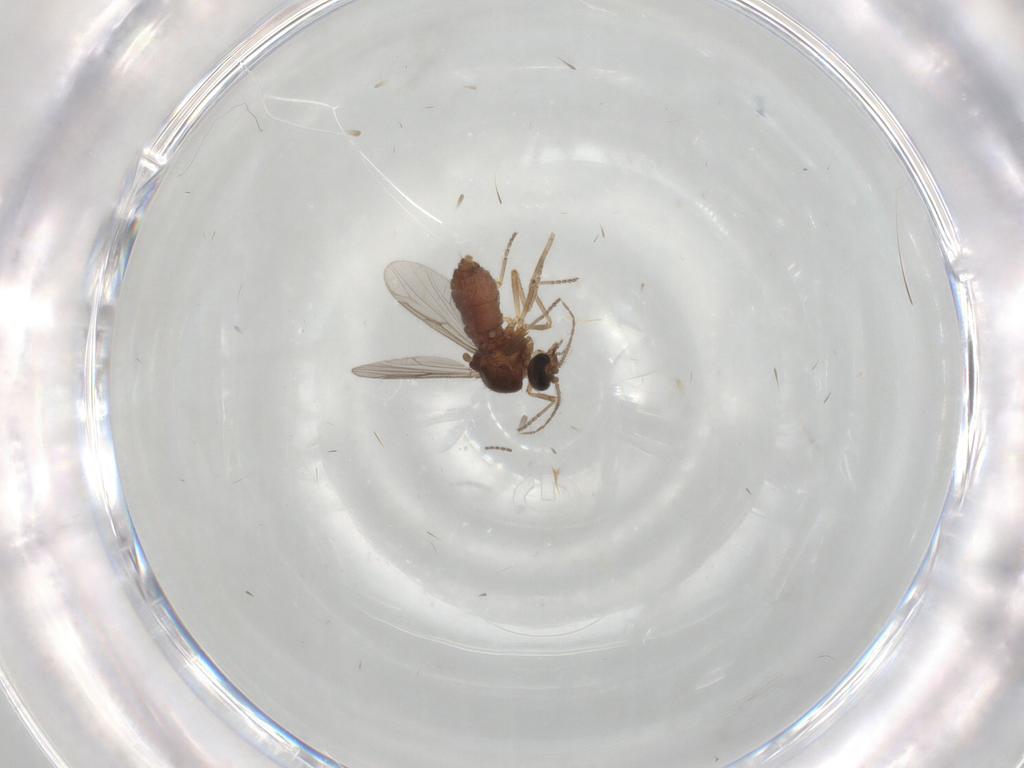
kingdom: Animalia
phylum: Arthropoda
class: Insecta
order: Diptera
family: Ceratopogonidae
